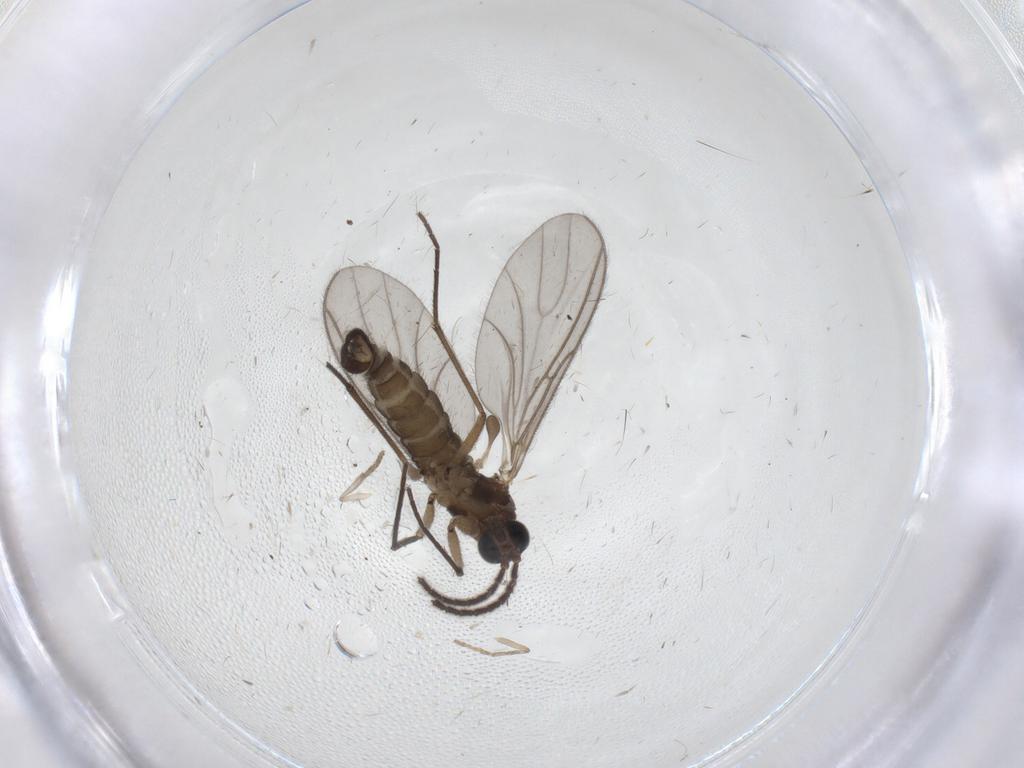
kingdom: Animalia
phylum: Arthropoda
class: Insecta
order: Diptera
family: Sciaridae
